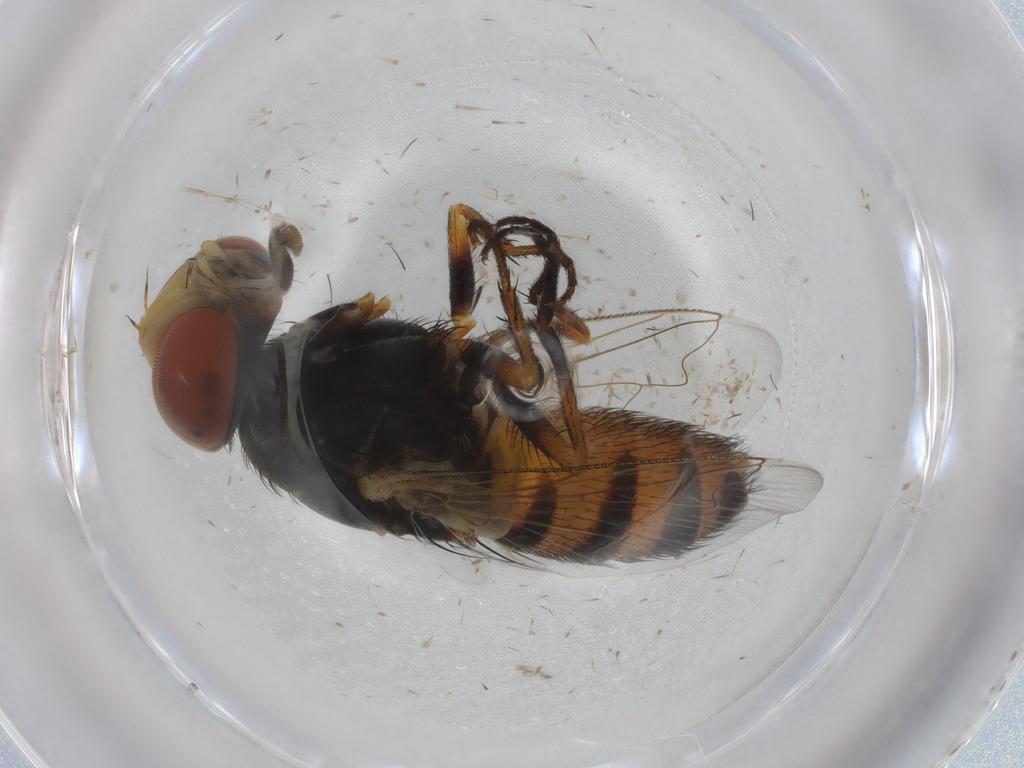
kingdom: Animalia
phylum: Arthropoda
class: Insecta
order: Diptera
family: Dolichopodidae
